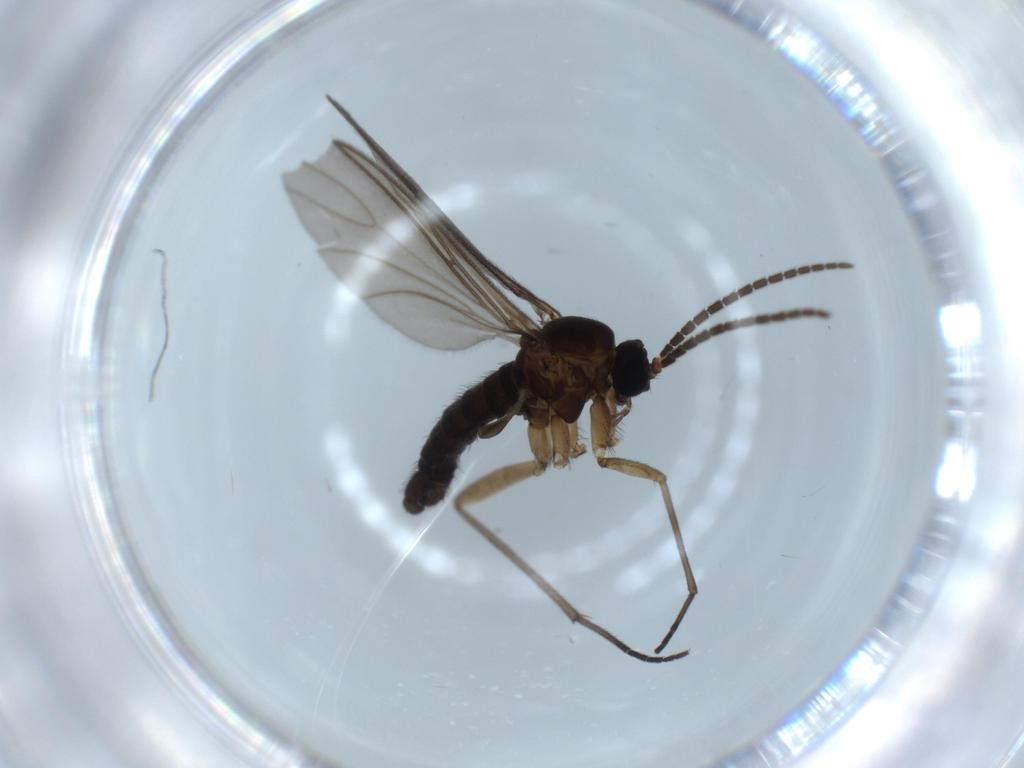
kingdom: Animalia
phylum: Arthropoda
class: Insecta
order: Diptera
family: Sciaridae
